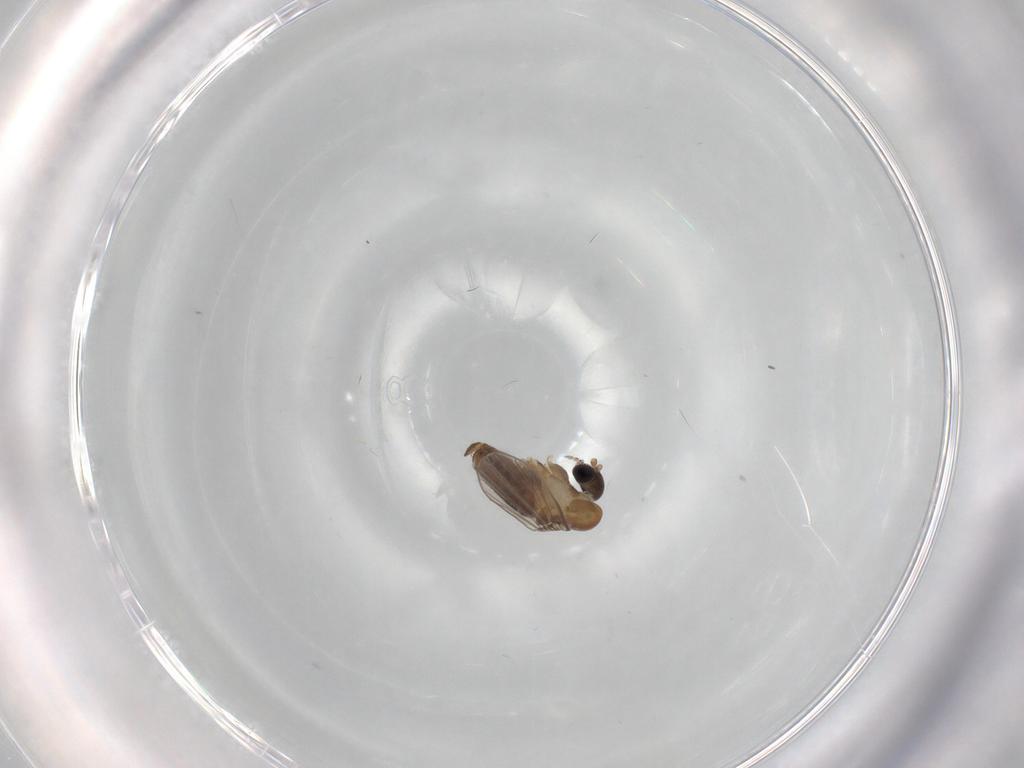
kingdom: Animalia
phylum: Arthropoda
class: Insecta
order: Diptera
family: Psychodidae
